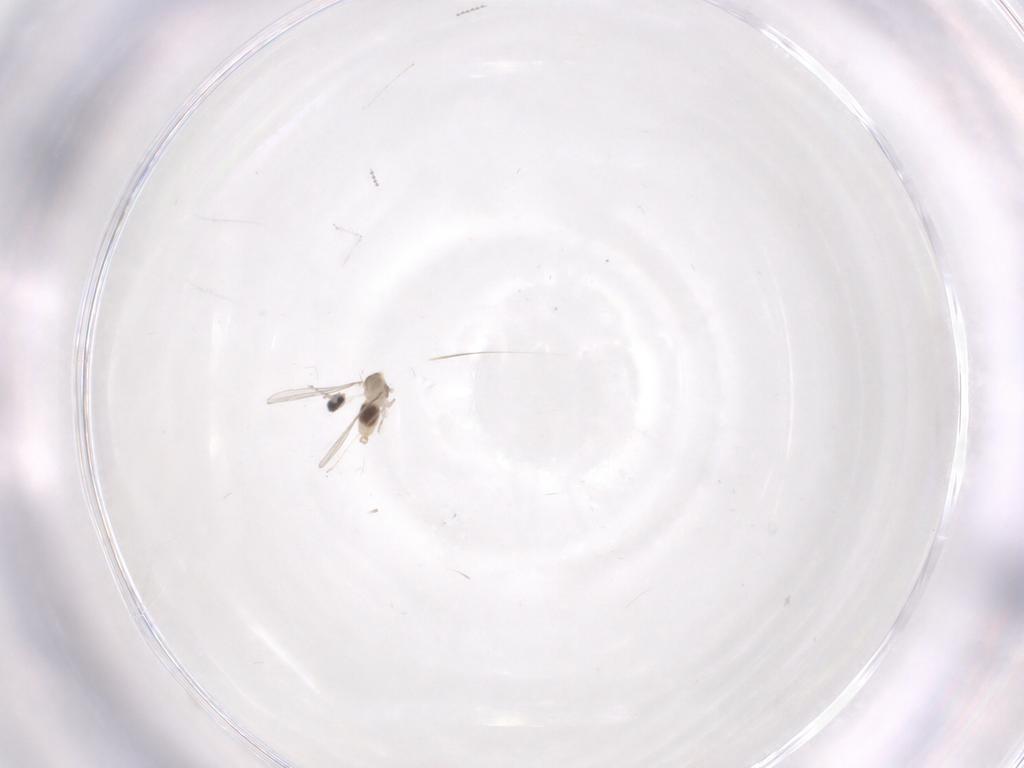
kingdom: Animalia
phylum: Arthropoda
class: Insecta
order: Diptera
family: Cecidomyiidae
